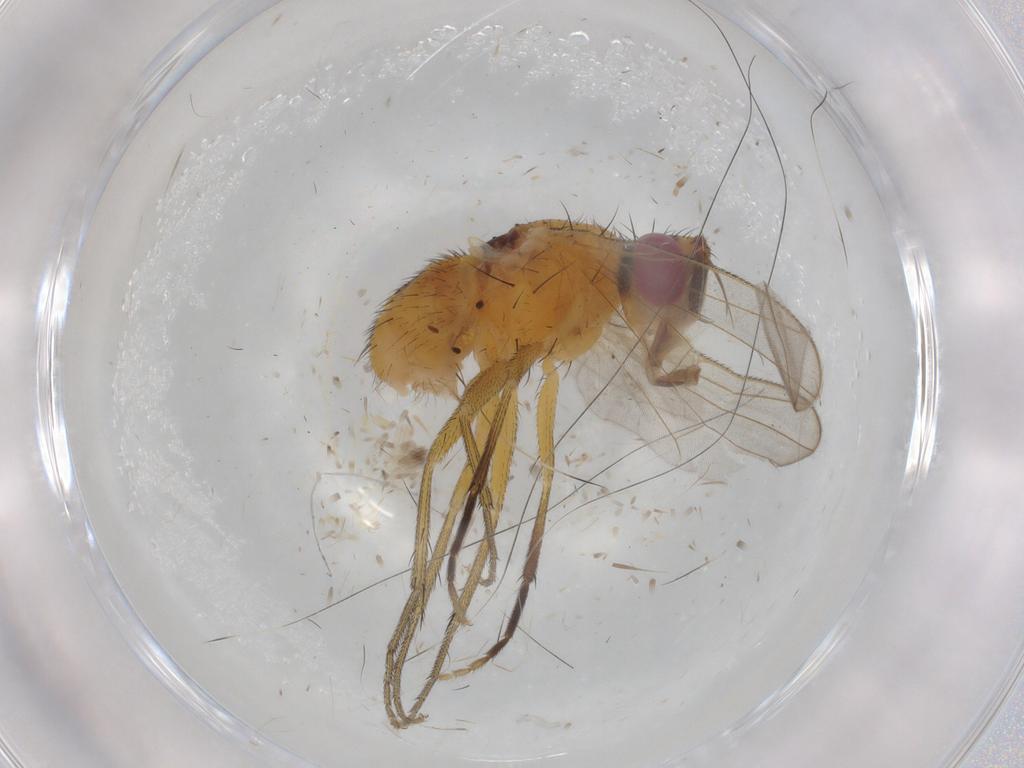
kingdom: Animalia
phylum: Arthropoda
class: Insecta
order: Diptera
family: Muscidae
